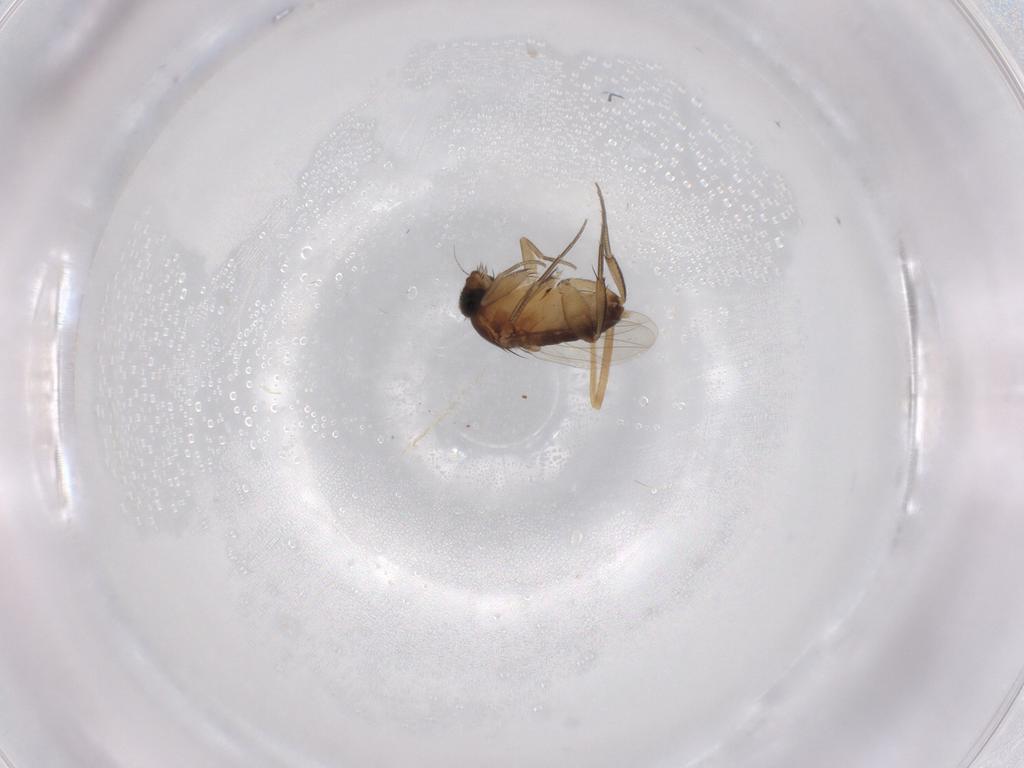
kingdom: Animalia
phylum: Arthropoda
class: Insecta
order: Diptera
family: Phoridae
